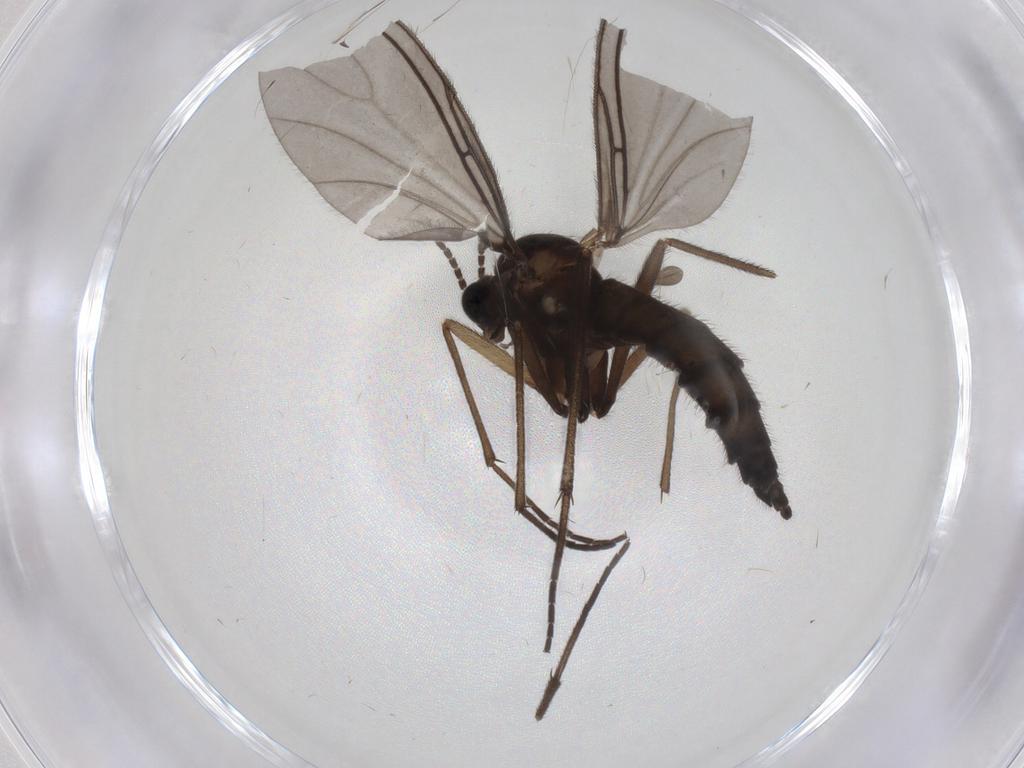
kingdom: Animalia
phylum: Arthropoda
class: Insecta
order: Diptera
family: Sciaridae
